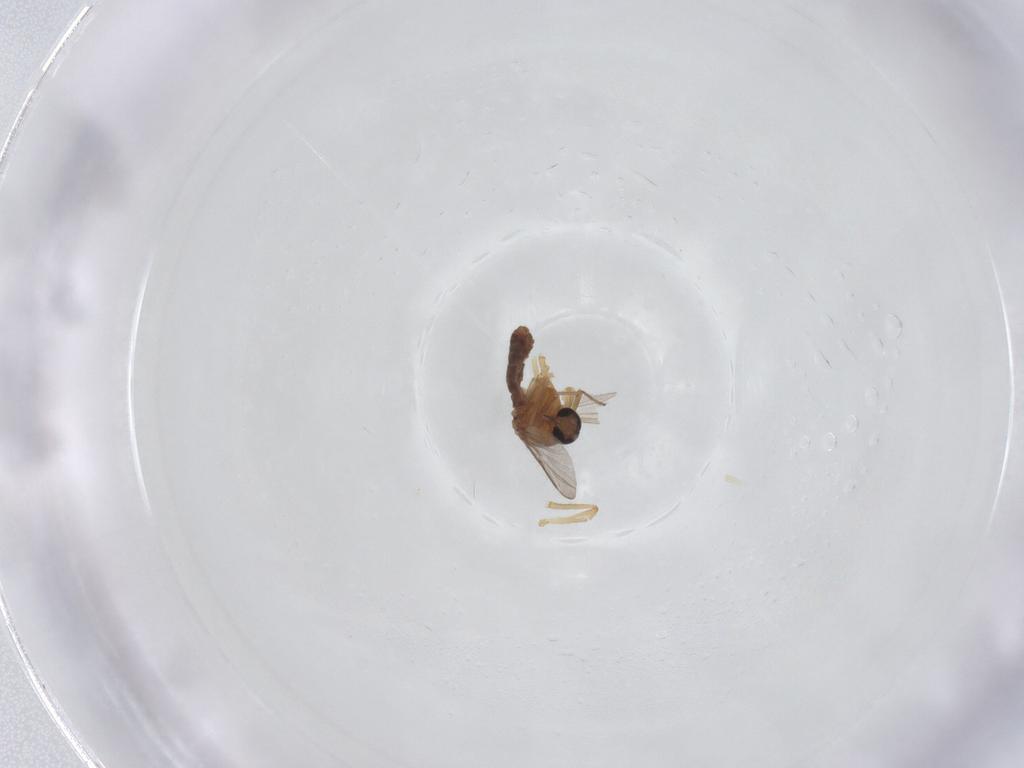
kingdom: Animalia
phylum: Arthropoda
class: Insecta
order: Diptera
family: Ceratopogonidae
